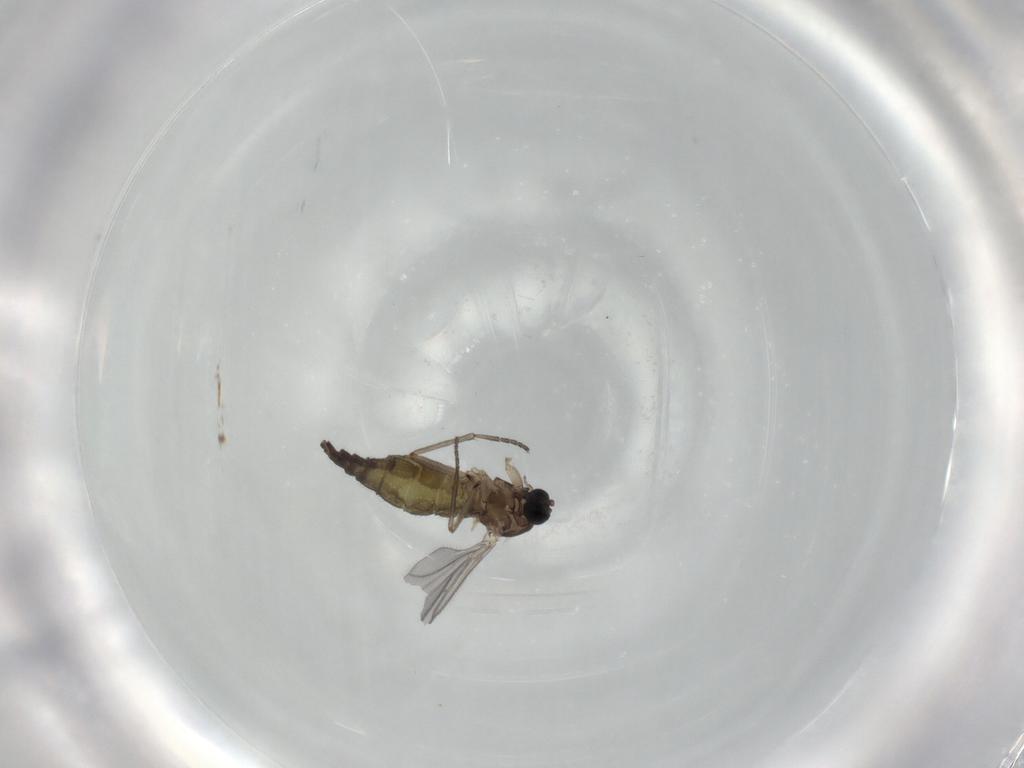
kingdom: Animalia
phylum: Arthropoda
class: Insecta
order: Diptera
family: Sciaridae
